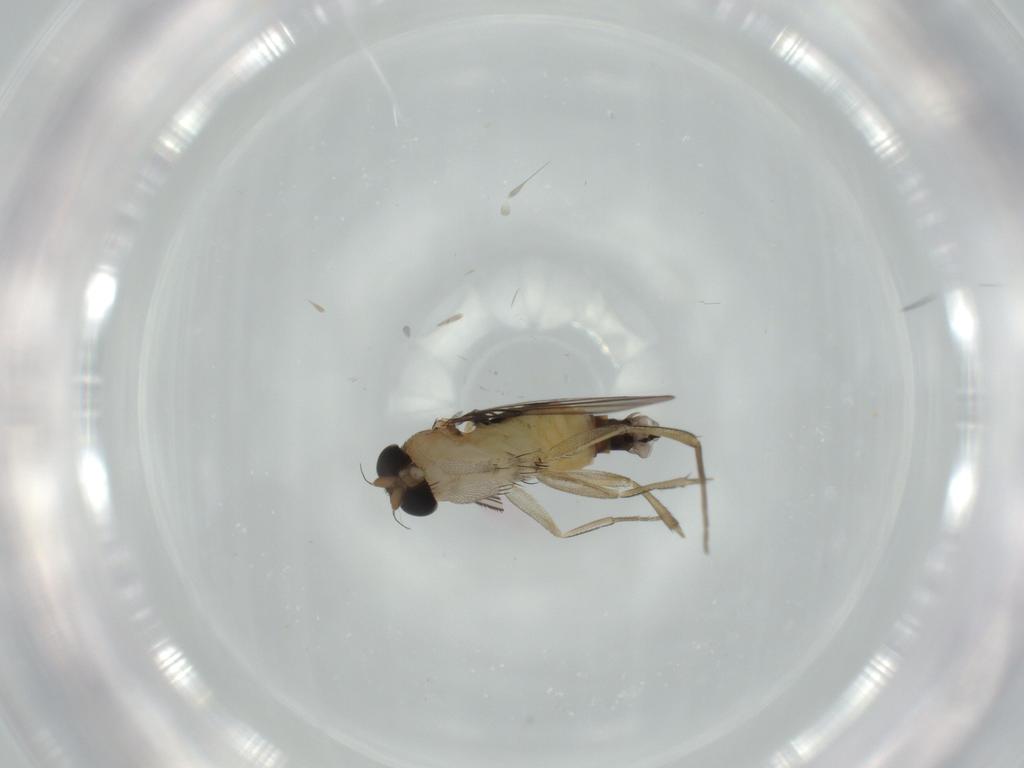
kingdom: Animalia
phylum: Arthropoda
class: Insecta
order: Diptera
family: Phoridae
